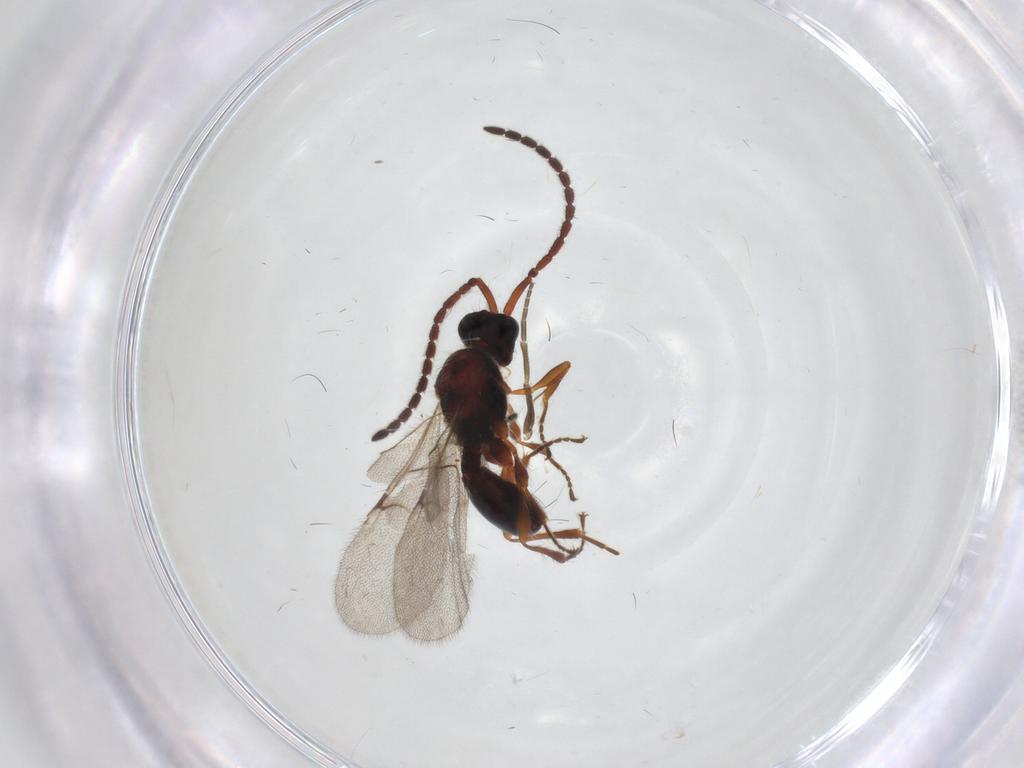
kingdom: Animalia
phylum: Arthropoda
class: Insecta
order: Hymenoptera
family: Diapriidae
